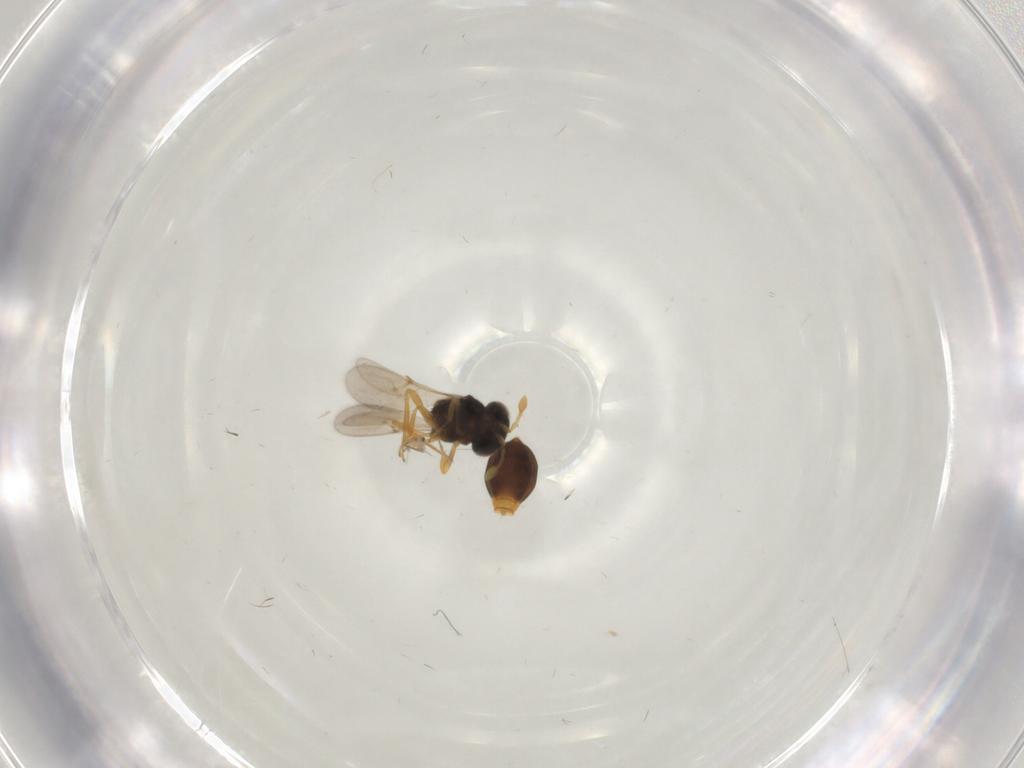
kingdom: Animalia
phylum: Arthropoda
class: Insecta
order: Hymenoptera
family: Scelionidae
